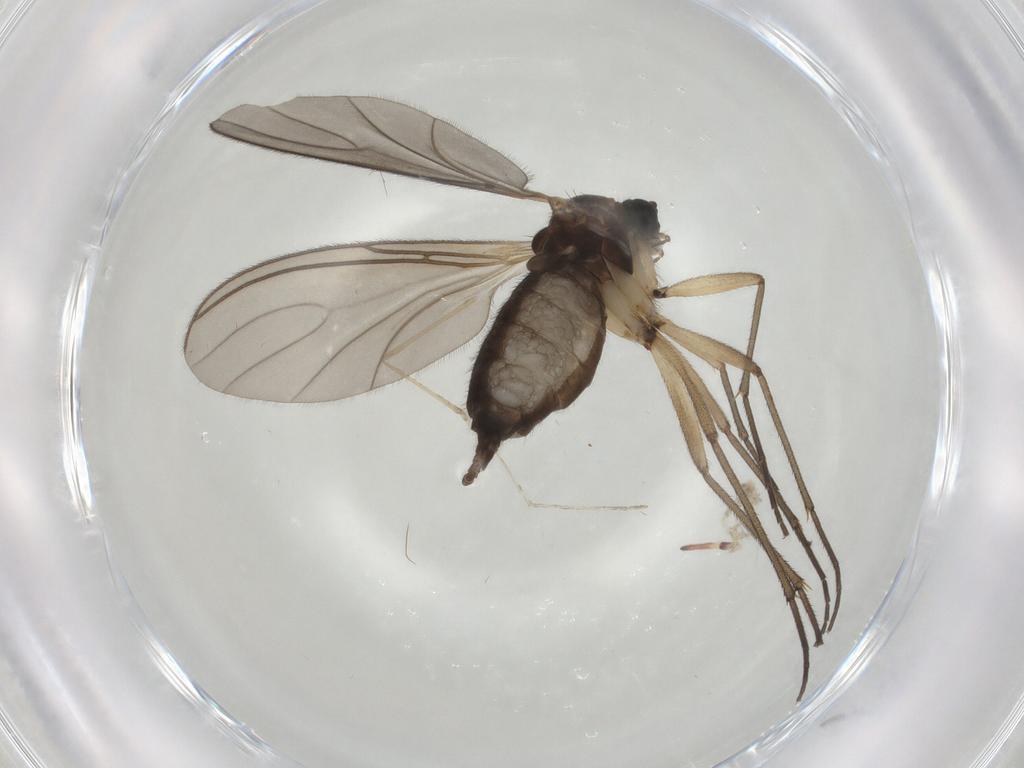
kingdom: Animalia
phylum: Arthropoda
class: Insecta
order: Diptera
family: Sciaridae
